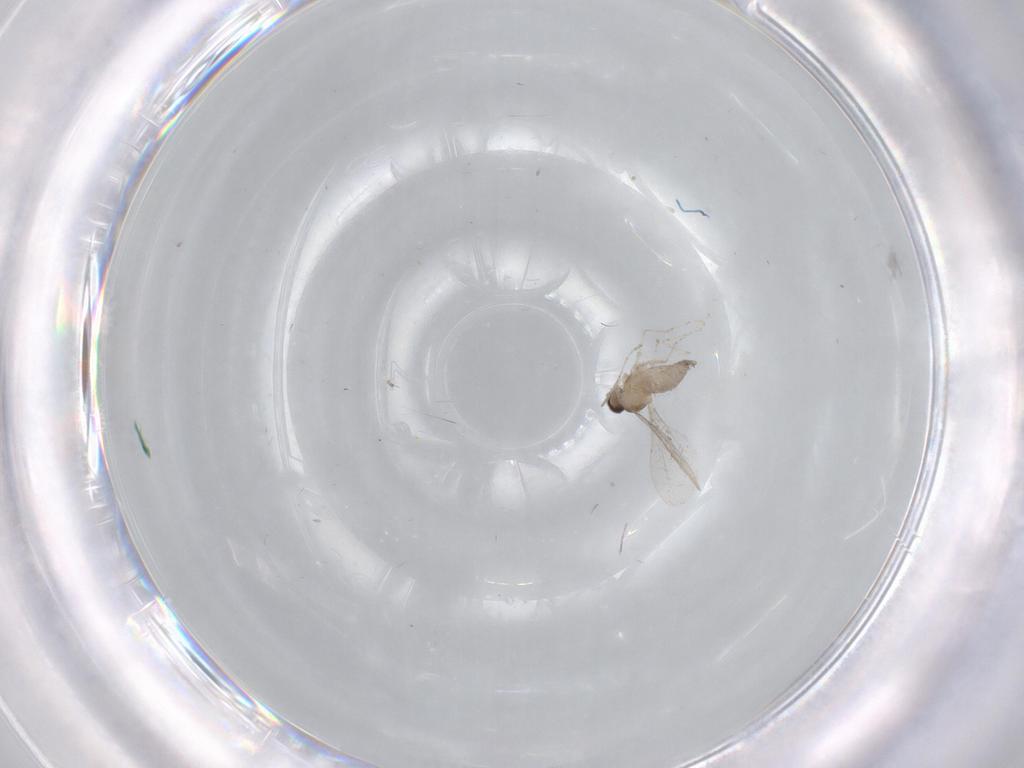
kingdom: Animalia
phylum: Arthropoda
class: Insecta
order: Diptera
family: Cecidomyiidae
